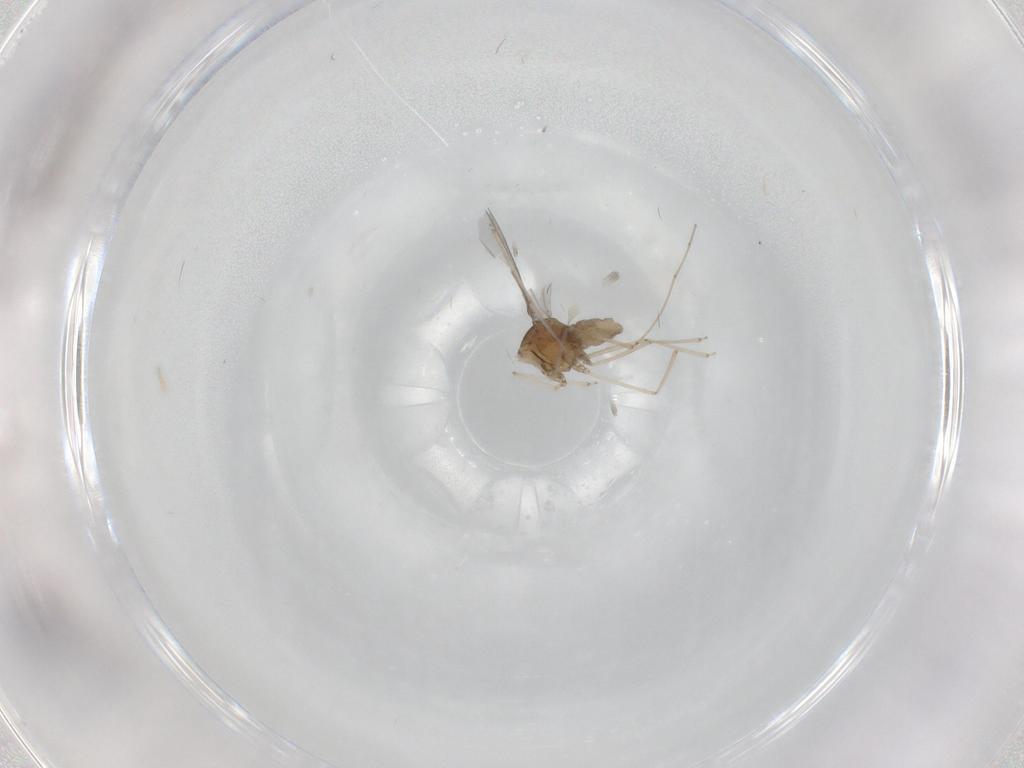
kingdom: Animalia
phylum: Arthropoda
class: Insecta
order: Diptera
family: Cecidomyiidae
